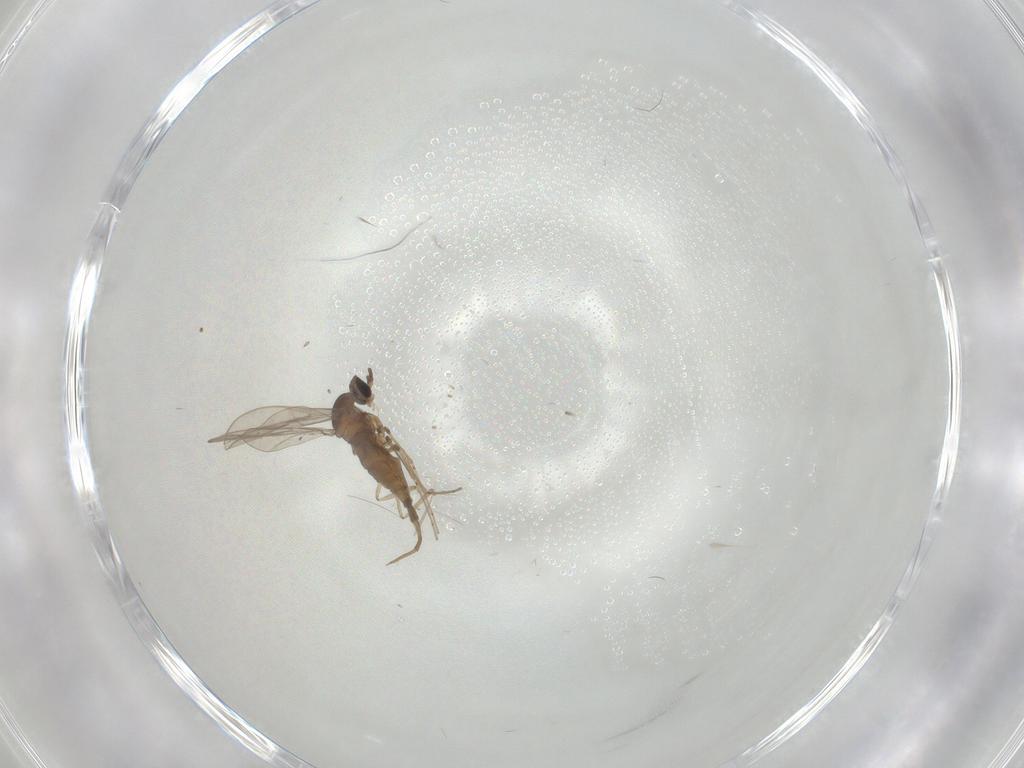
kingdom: Animalia
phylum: Arthropoda
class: Insecta
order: Diptera
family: Cecidomyiidae
